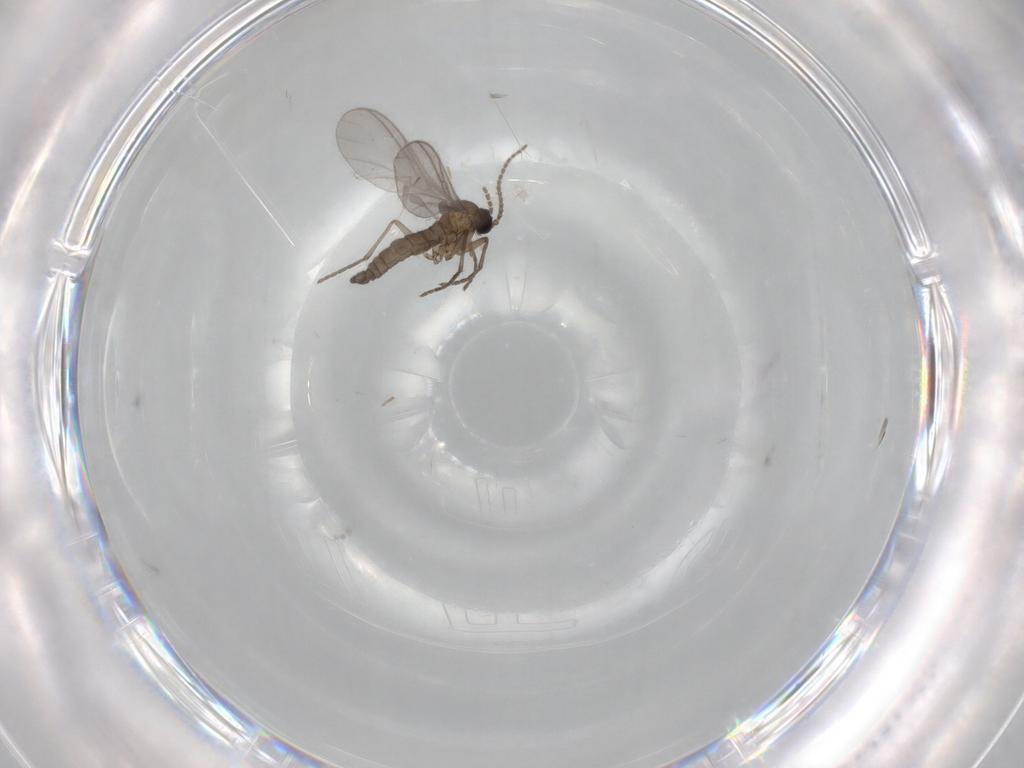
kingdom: Animalia
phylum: Arthropoda
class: Insecta
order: Diptera
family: Sciaridae
